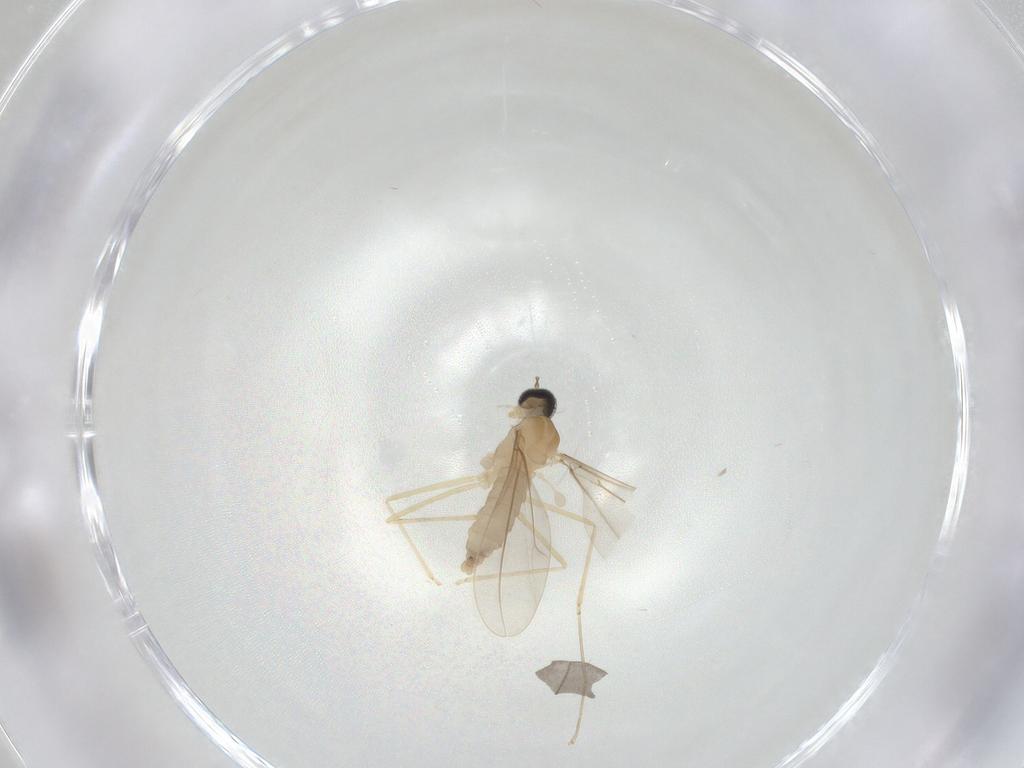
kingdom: Animalia
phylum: Arthropoda
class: Insecta
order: Diptera
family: Cecidomyiidae
